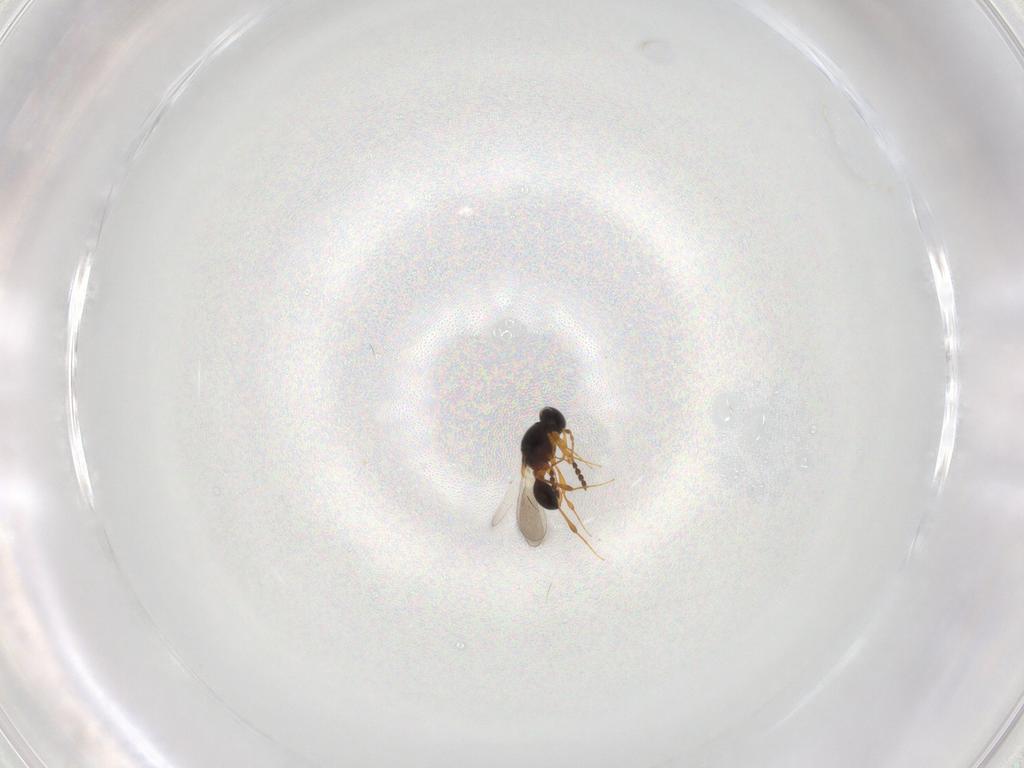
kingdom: Animalia
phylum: Arthropoda
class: Insecta
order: Hymenoptera
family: Platygastridae
